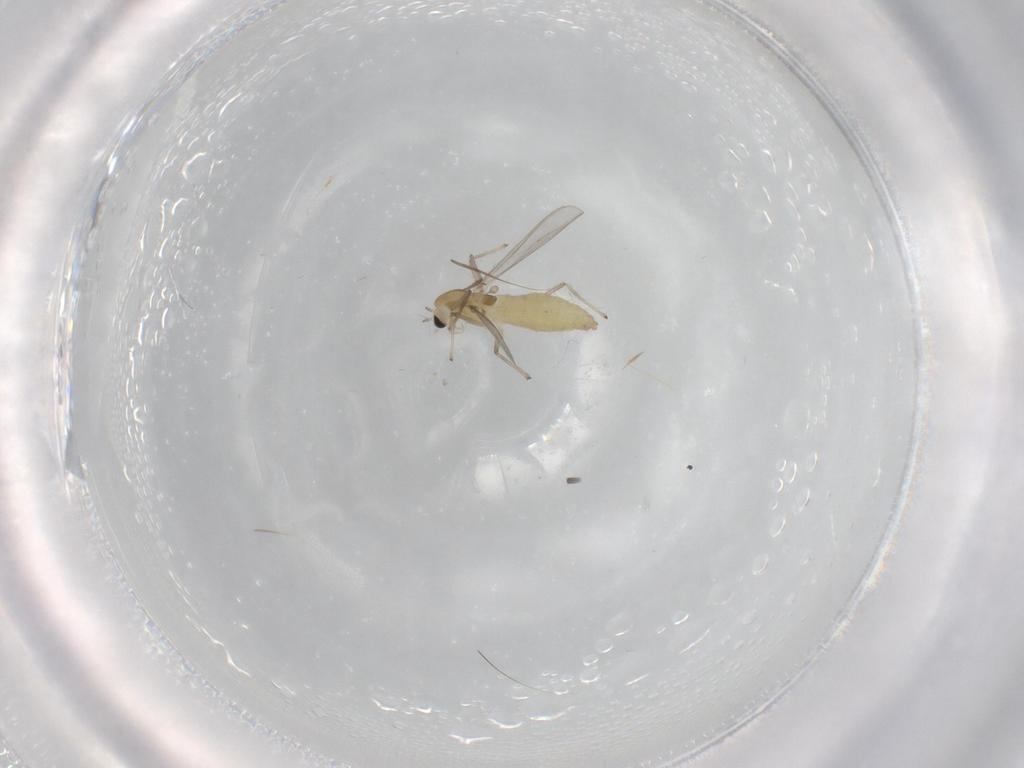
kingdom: Animalia
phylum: Arthropoda
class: Insecta
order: Diptera
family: Chironomidae
